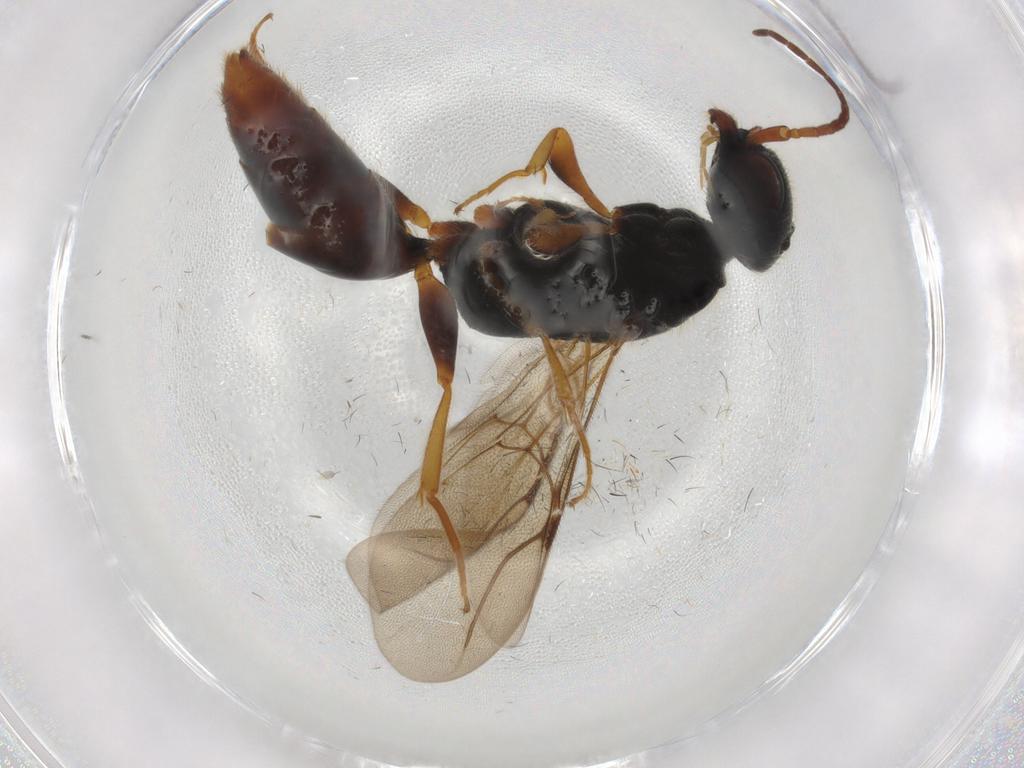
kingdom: Animalia
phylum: Arthropoda
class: Insecta
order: Hymenoptera
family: Bethylidae
